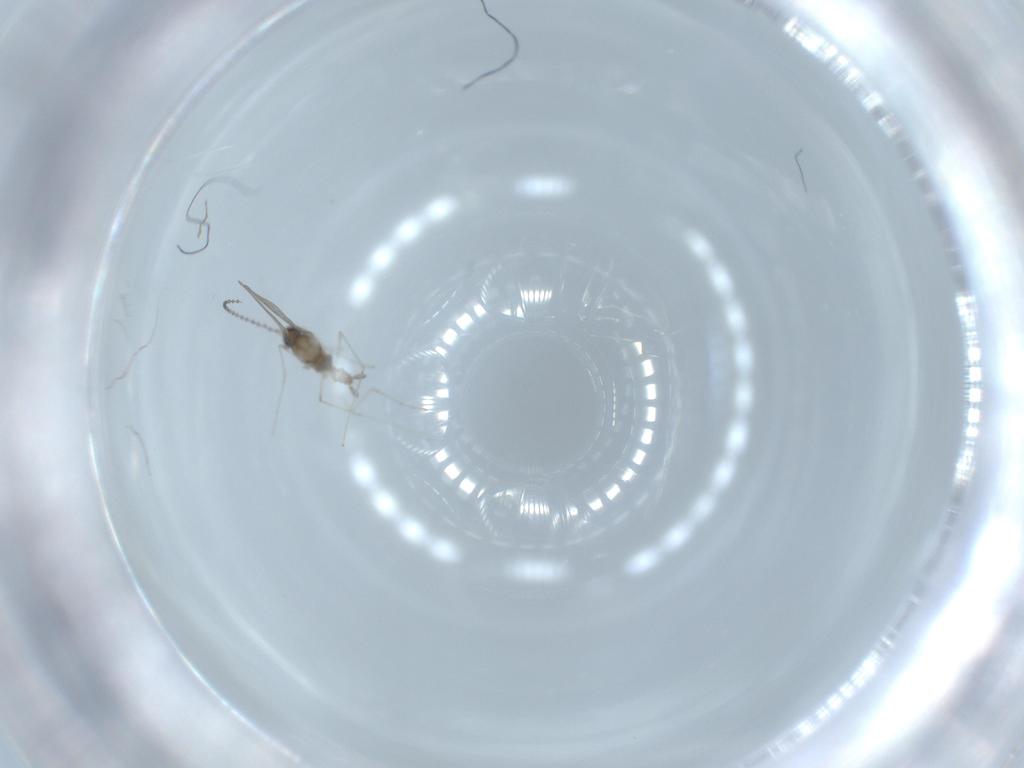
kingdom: Animalia
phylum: Arthropoda
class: Insecta
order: Diptera
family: Cecidomyiidae
